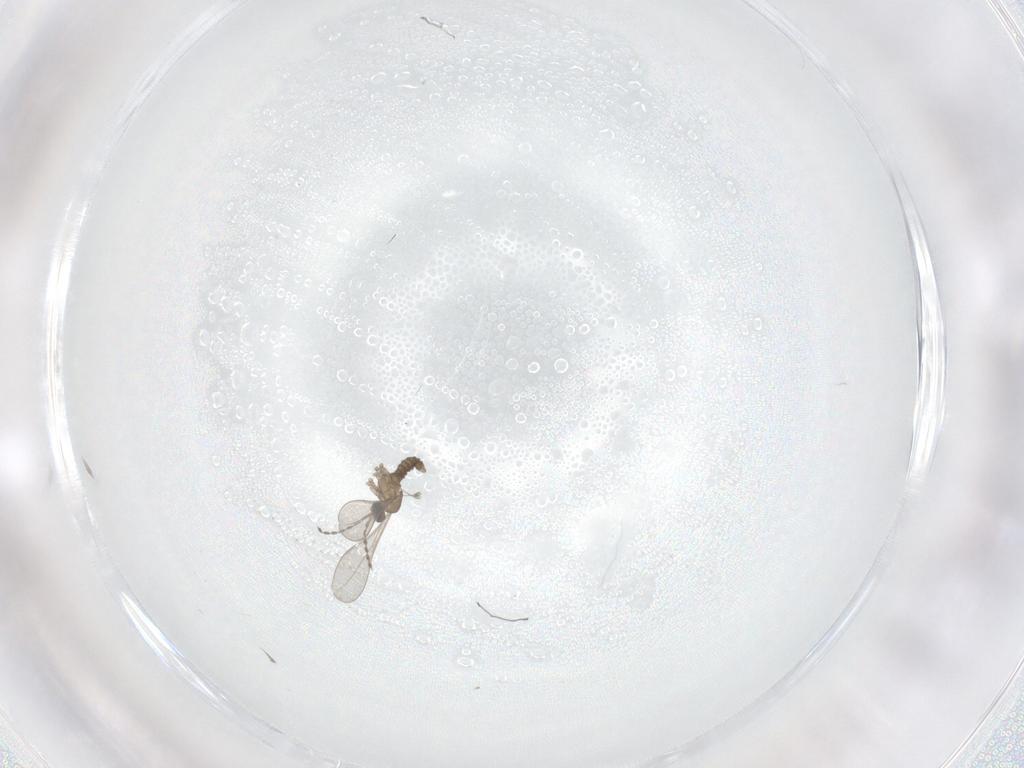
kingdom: Animalia
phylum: Arthropoda
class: Insecta
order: Diptera
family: Cecidomyiidae
